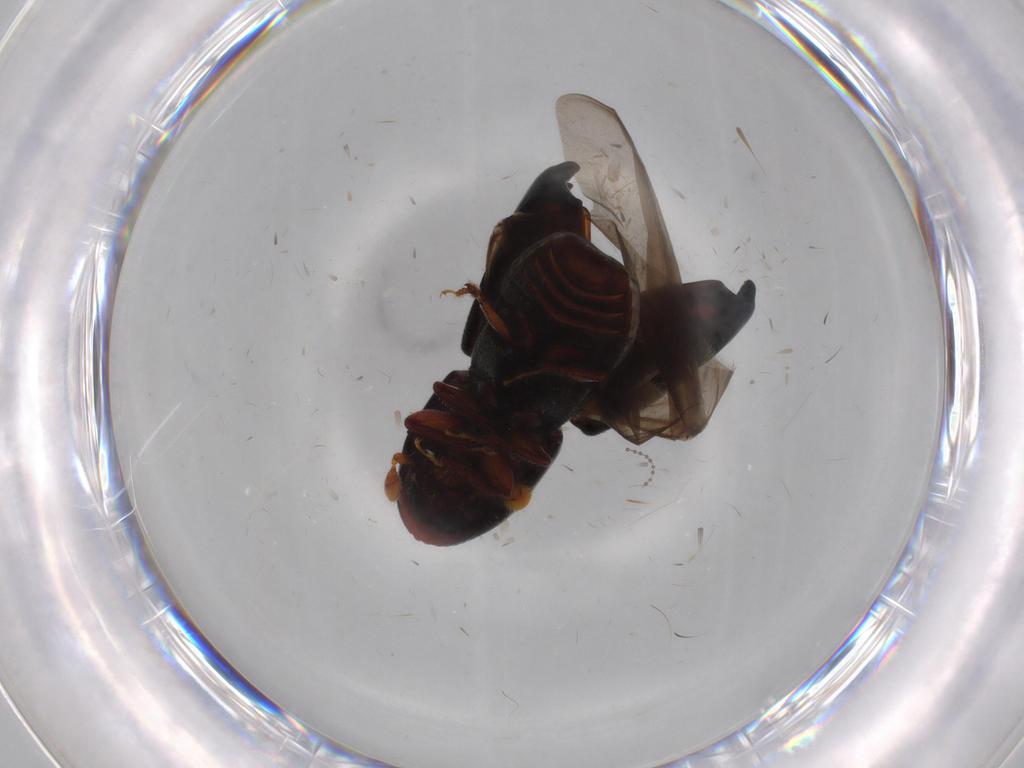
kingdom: Animalia
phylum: Arthropoda
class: Insecta
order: Coleoptera
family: Curculionidae
